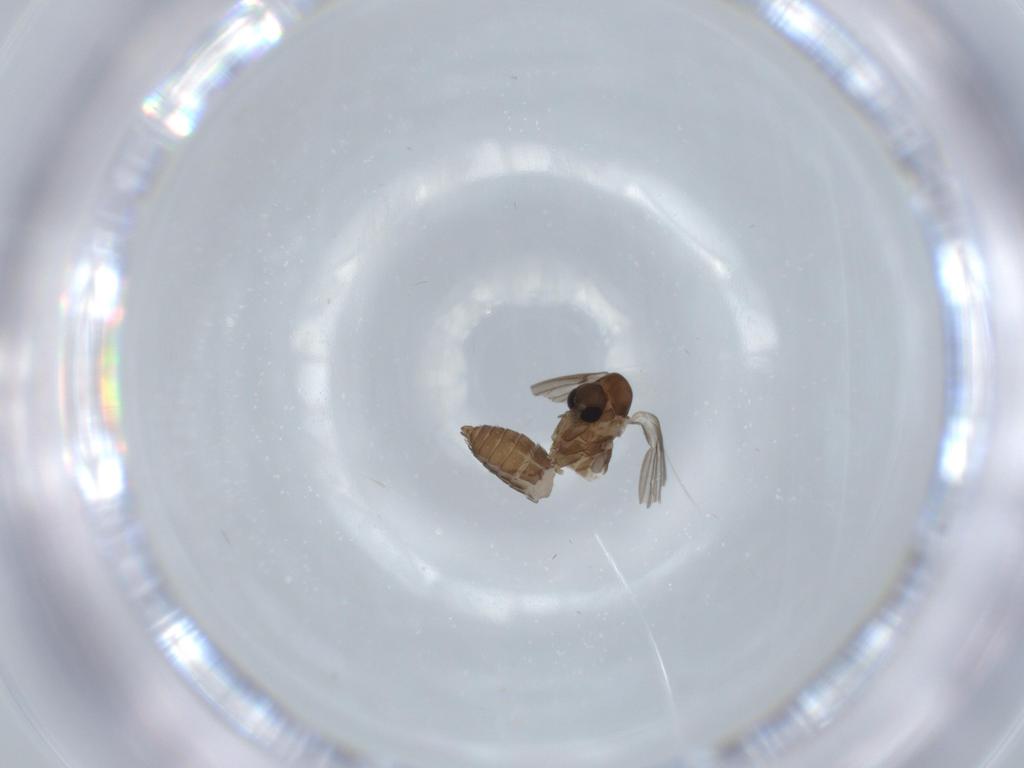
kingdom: Animalia
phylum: Arthropoda
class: Insecta
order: Diptera
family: Psychodidae
